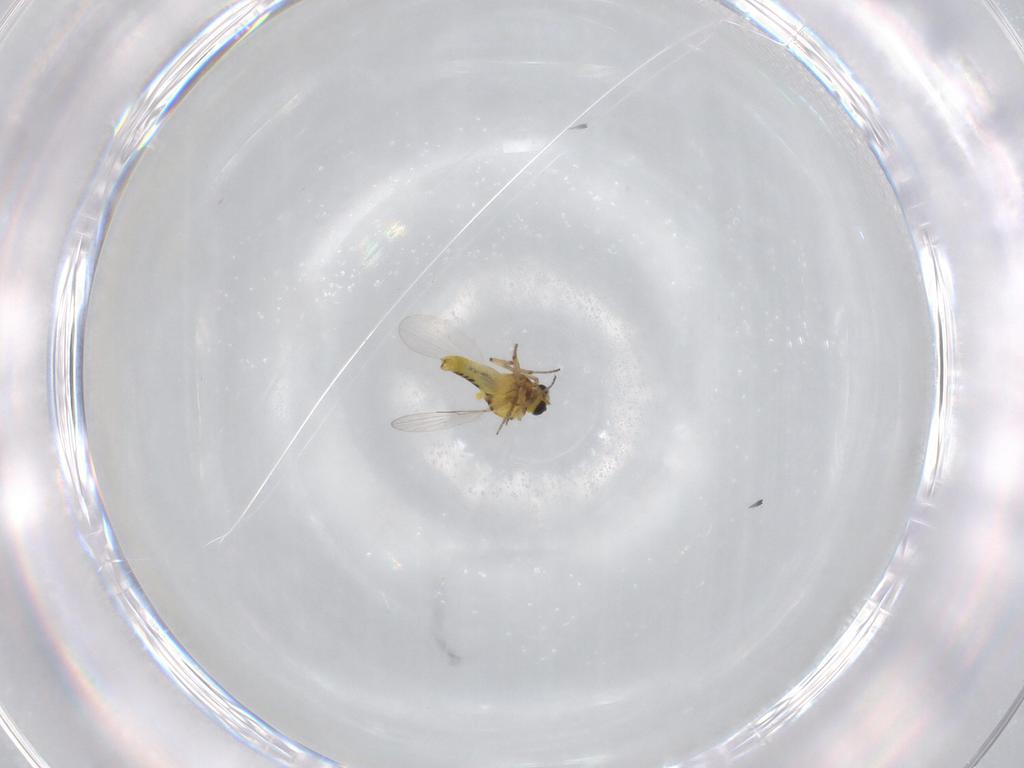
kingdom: Animalia
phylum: Arthropoda
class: Insecta
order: Diptera
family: Ceratopogonidae
